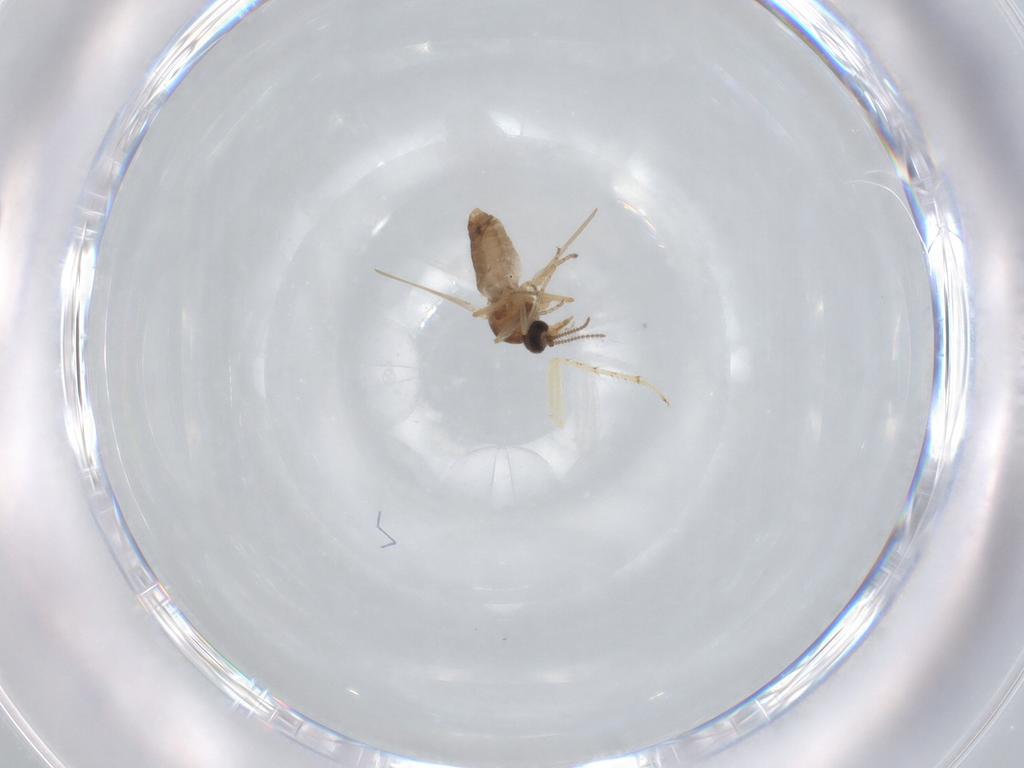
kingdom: Animalia
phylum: Arthropoda
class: Insecta
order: Diptera
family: Ceratopogonidae
